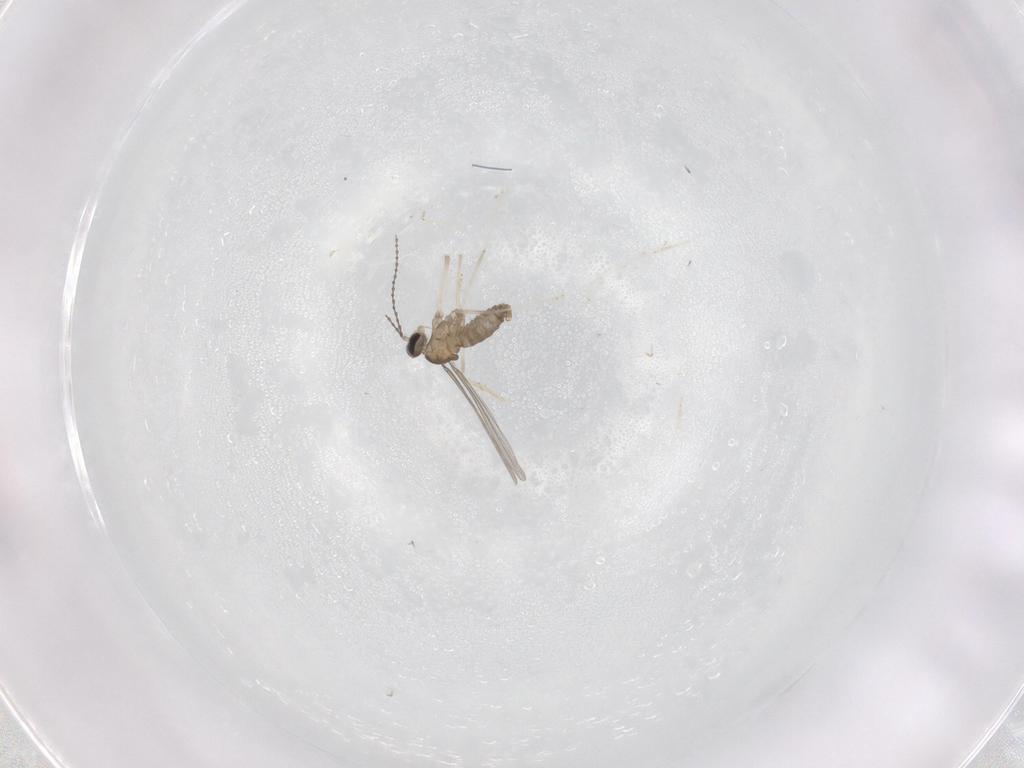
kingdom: Animalia
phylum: Arthropoda
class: Insecta
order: Diptera
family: Cecidomyiidae
